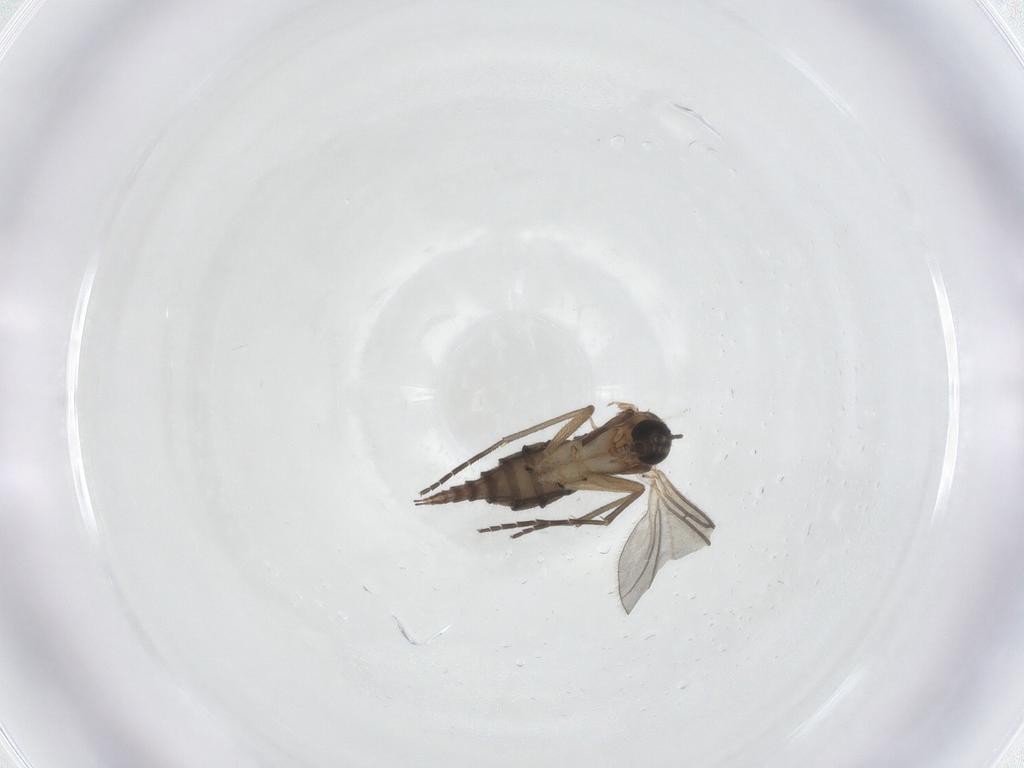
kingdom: Animalia
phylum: Arthropoda
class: Insecta
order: Diptera
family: Sciaridae
